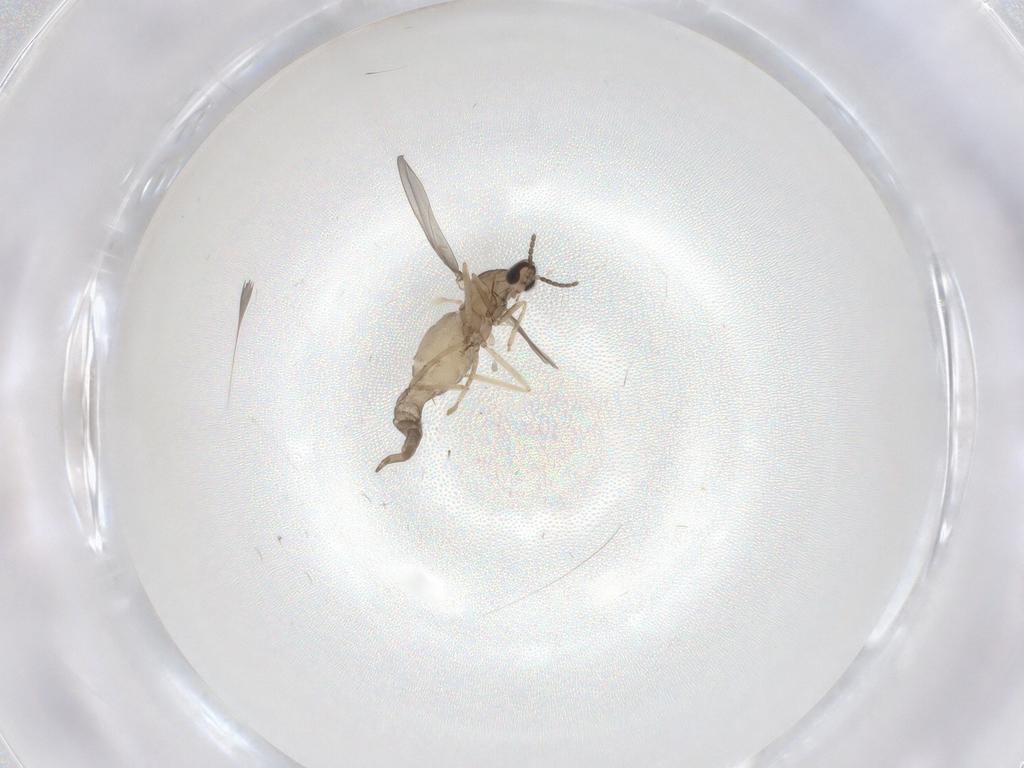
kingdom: Animalia
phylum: Arthropoda
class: Insecta
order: Diptera
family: Cecidomyiidae
